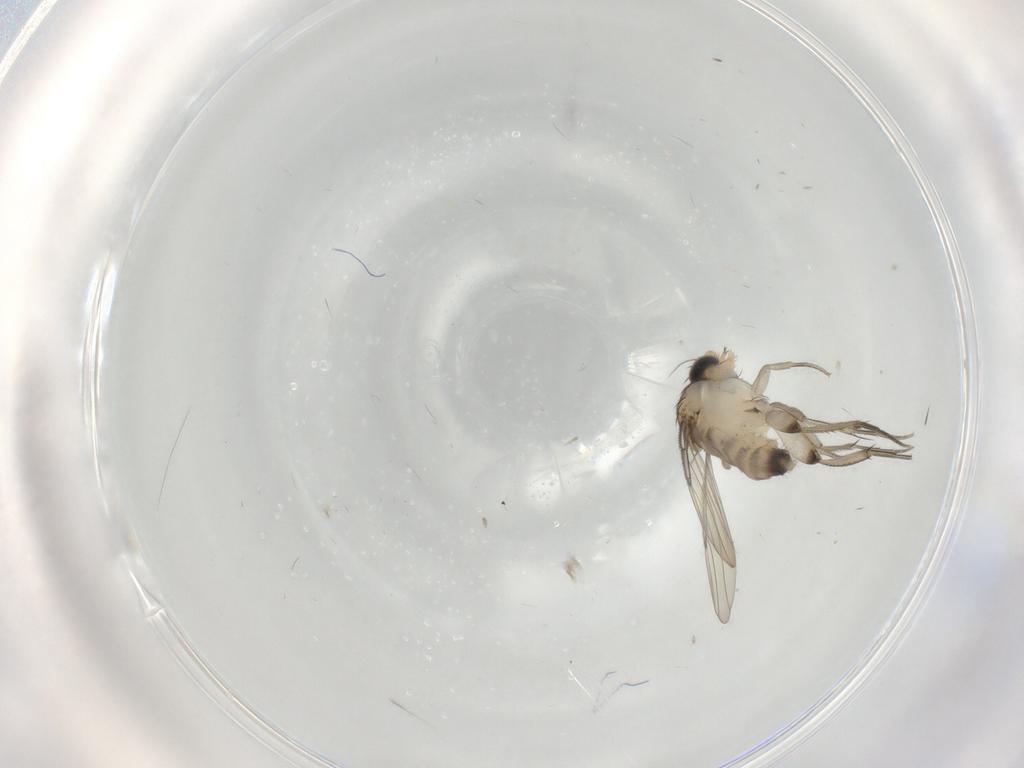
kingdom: Animalia
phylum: Arthropoda
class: Insecta
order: Diptera
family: Phoridae
